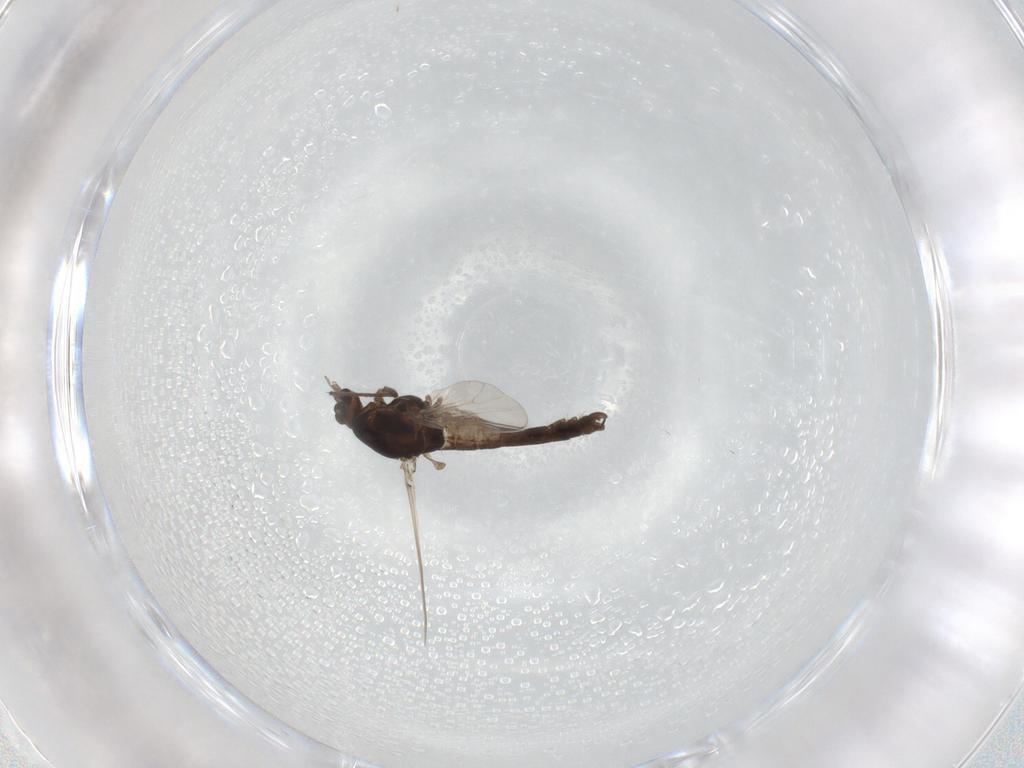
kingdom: Animalia
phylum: Arthropoda
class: Insecta
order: Diptera
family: Chironomidae
